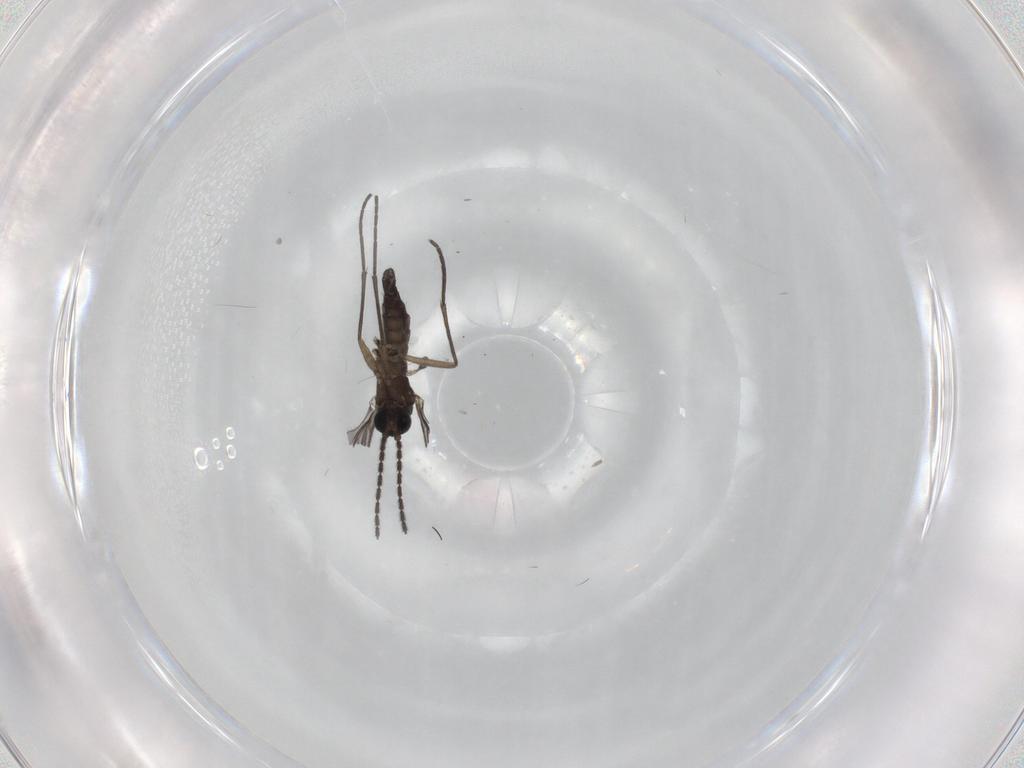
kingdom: Animalia
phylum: Arthropoda
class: Insecta
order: Diptera
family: Sciaridae
